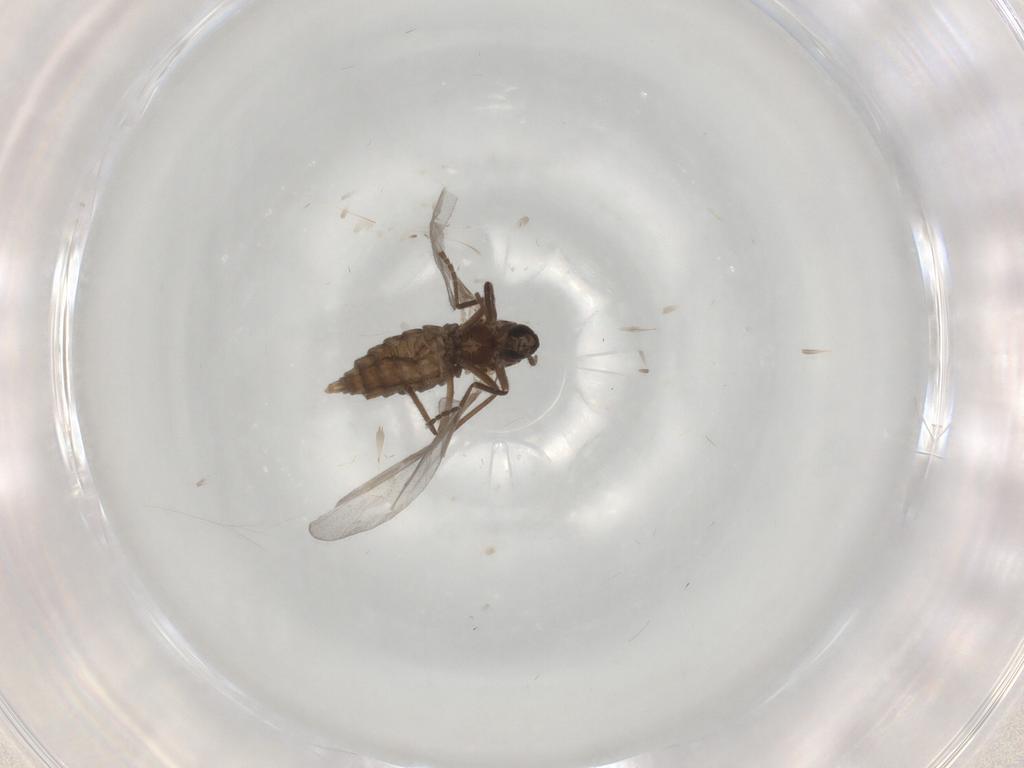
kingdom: Animalia
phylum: Arthropoda
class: Insecta
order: Diptera
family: Cecidomyiidae
